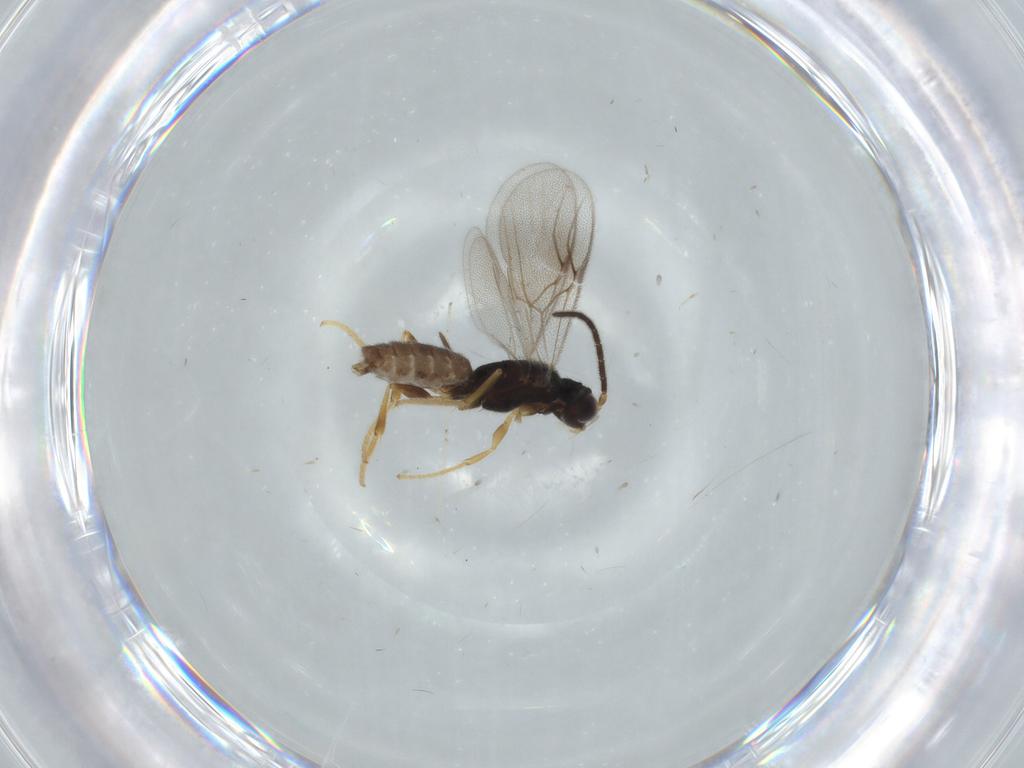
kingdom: Animalia
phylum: Arthropoda
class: Insecta
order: Hymenoptera
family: Dryinidae
